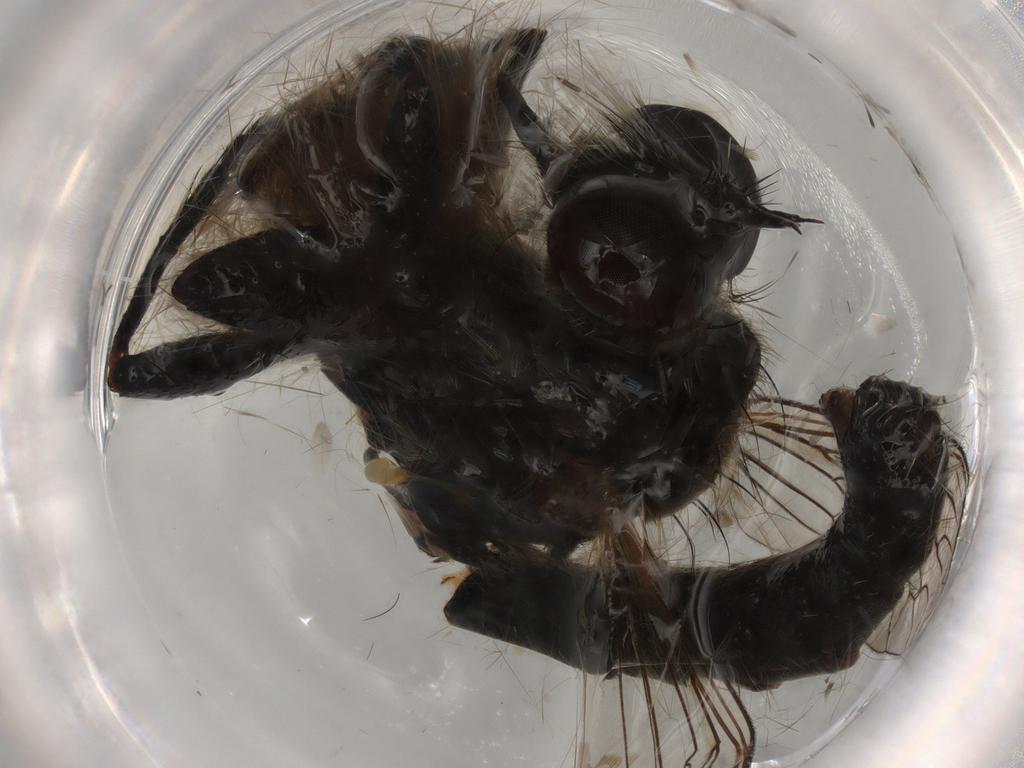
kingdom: Animalia
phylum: Arthropoda
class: Insecta
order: Diptera
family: Asilidae
